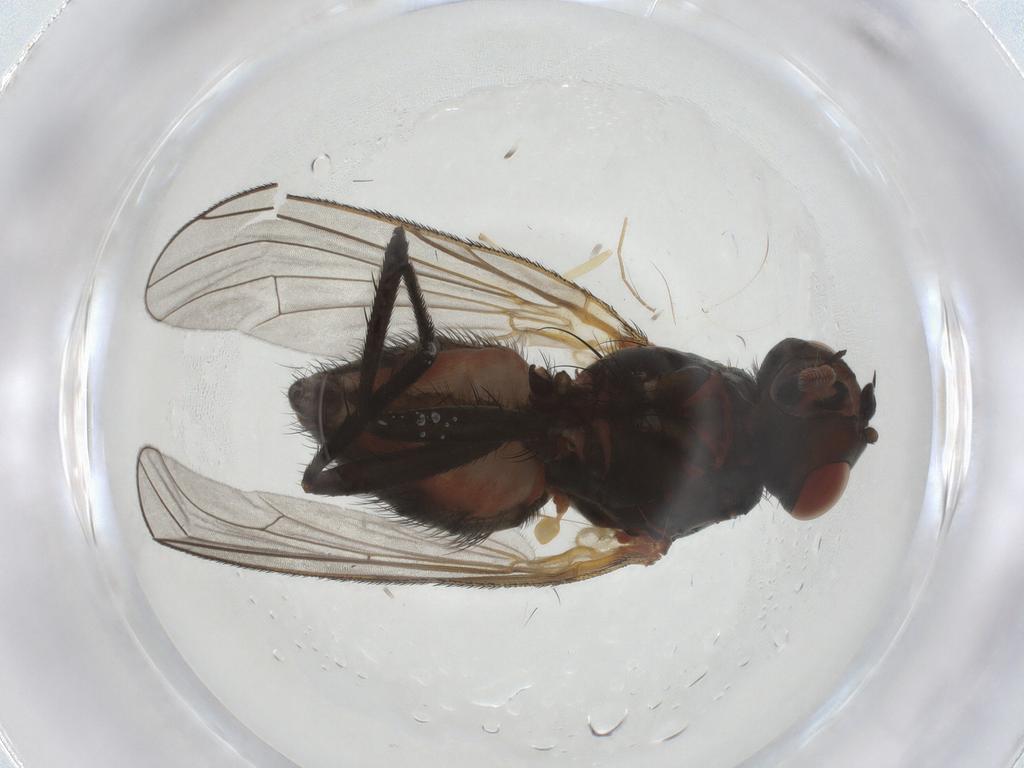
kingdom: Animalia
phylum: Arthropoda
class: Insecta
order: Diptera
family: Anthomyiidae
